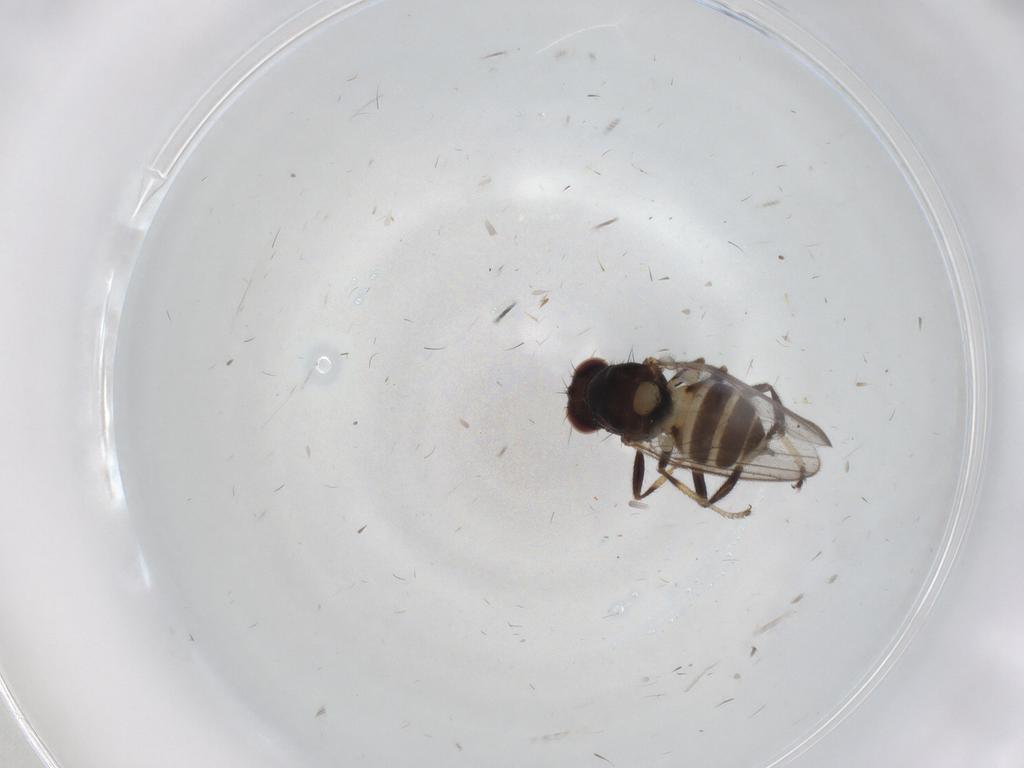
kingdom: Animalia
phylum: Arthropoda
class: Insecta
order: Diptera
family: Chloropidae
